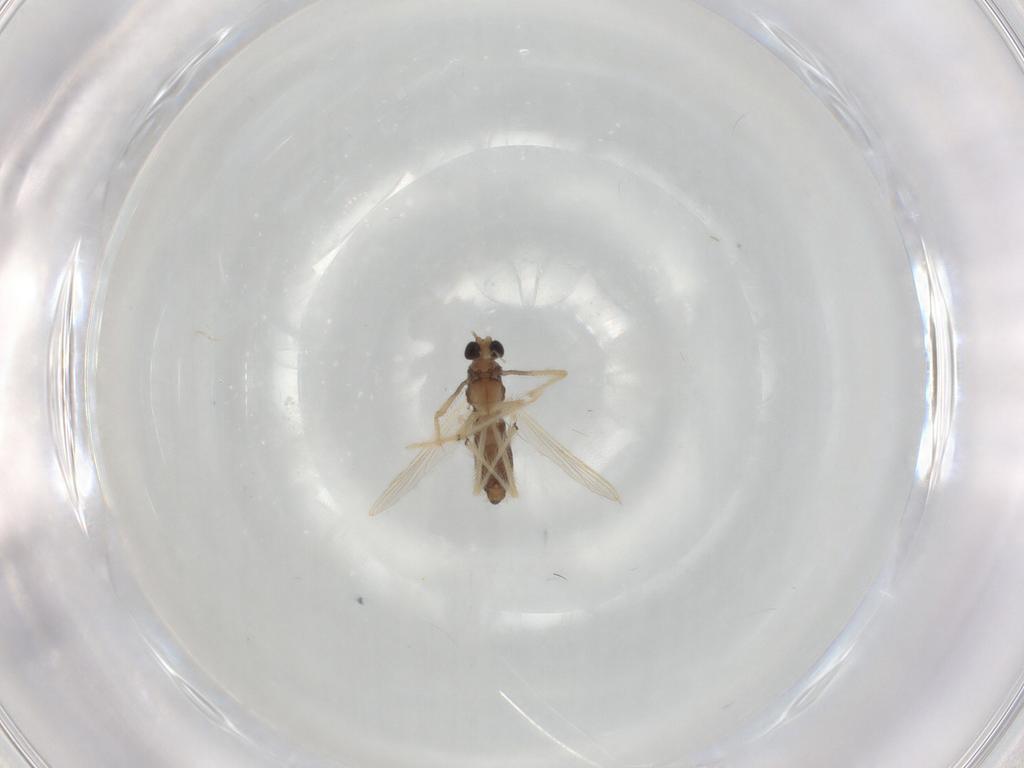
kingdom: Animalia
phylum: Arthropoda
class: Insecta
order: Diptera
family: Chironomidae
